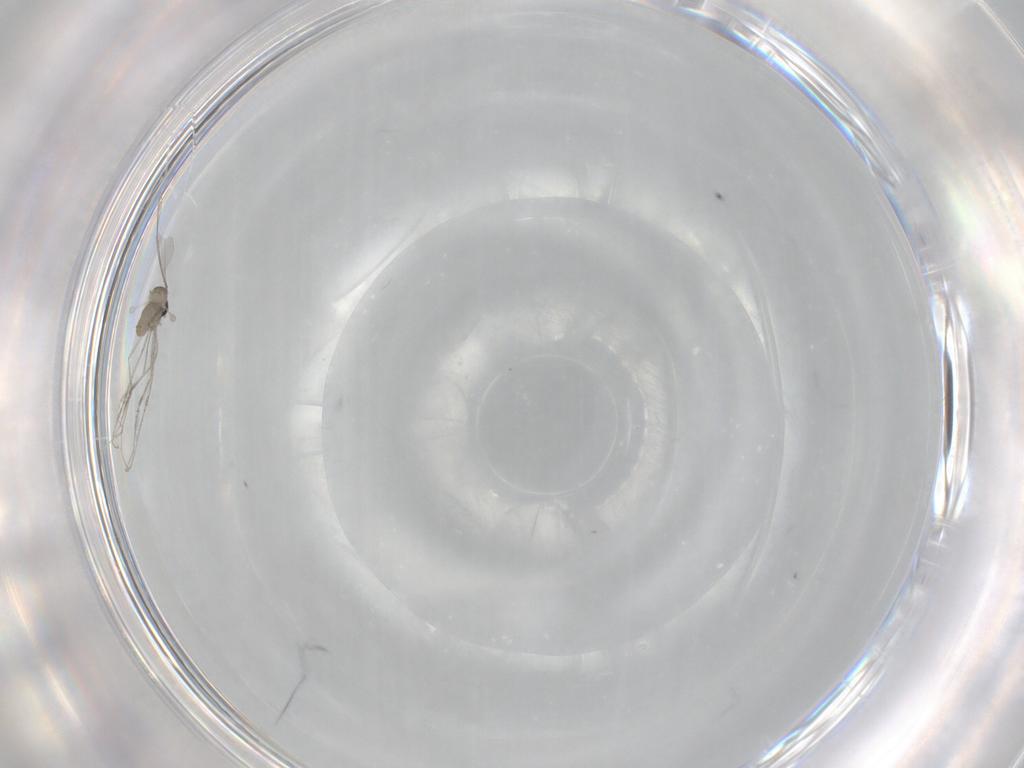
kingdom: Animalia
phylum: Arthropoda
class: Insecta
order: Diptera
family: Cecidomyiidae
